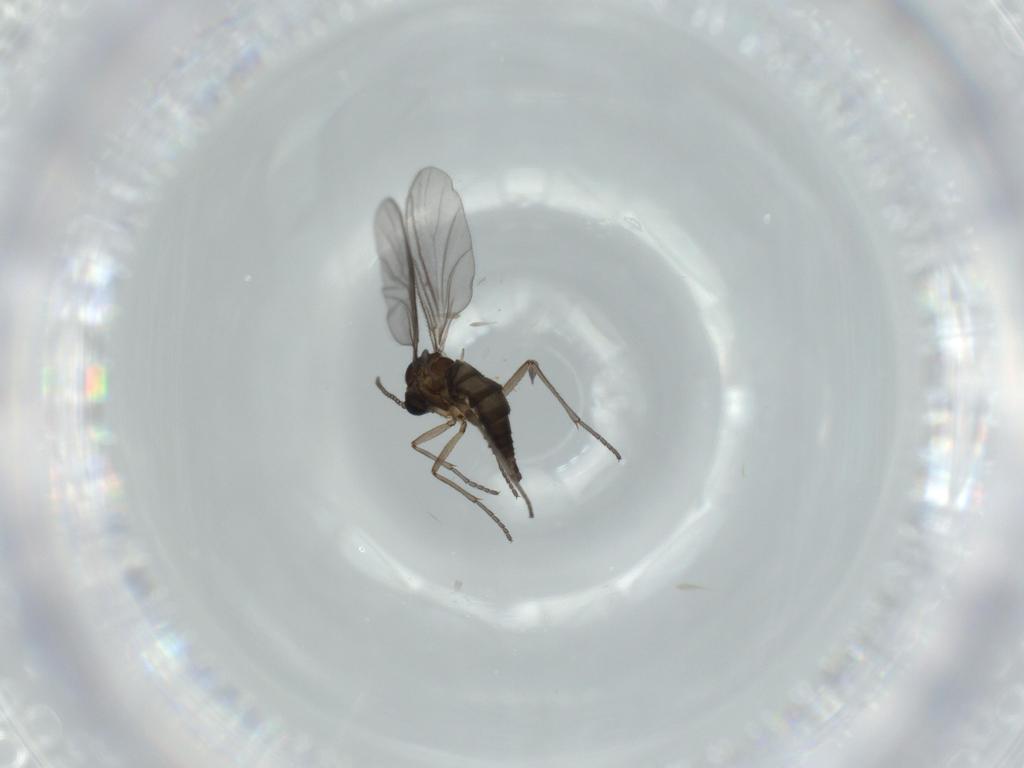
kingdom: Animalia
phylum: Arthropoda
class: Insecta
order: Diptera
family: Sciaridae
